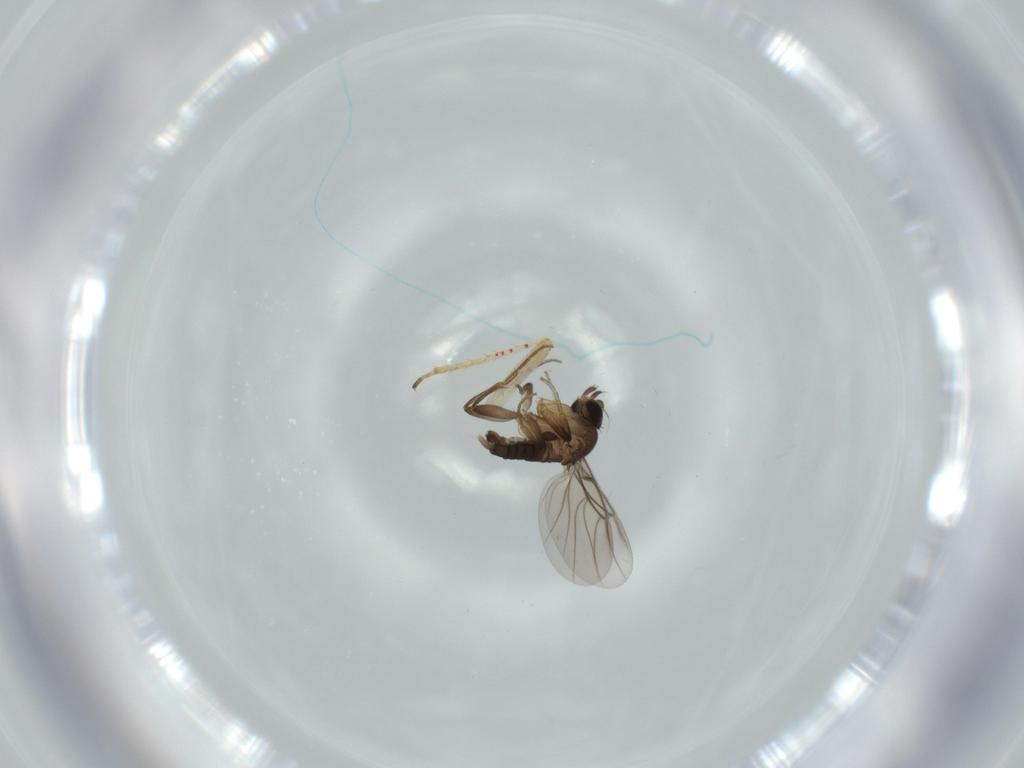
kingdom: Animalia
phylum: Arthropoda
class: Insecta
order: Diptera
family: Phoridae
